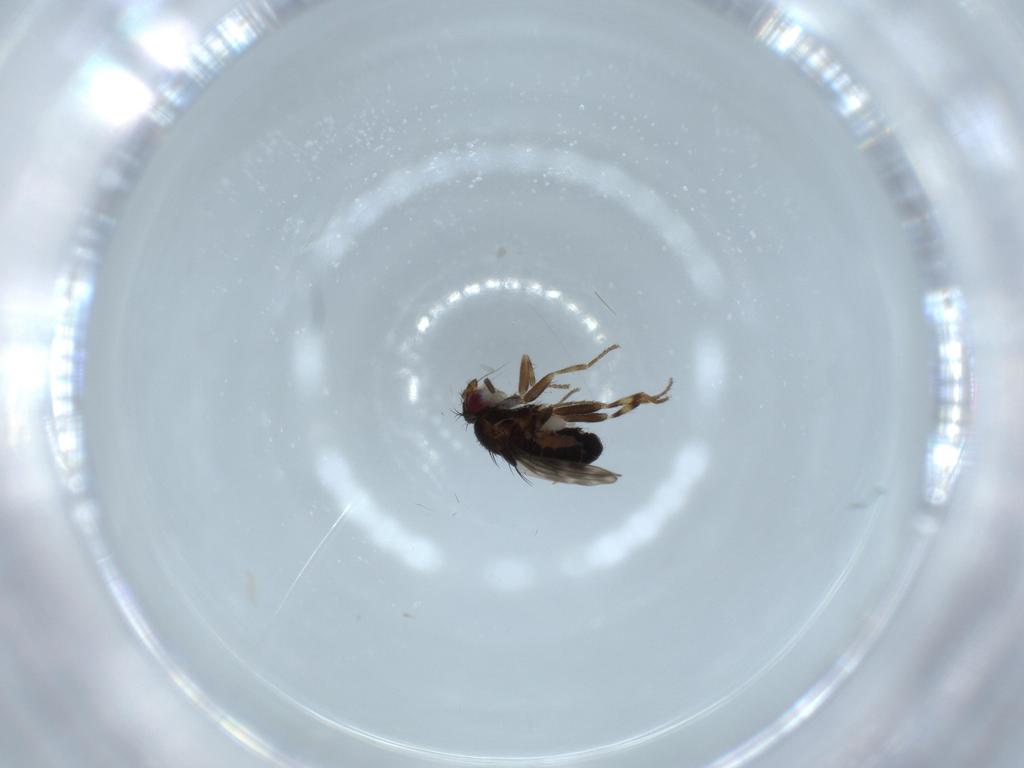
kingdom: Animalia
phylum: Arthropoda
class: Insecta
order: Diptera
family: Sphaeroceridae
